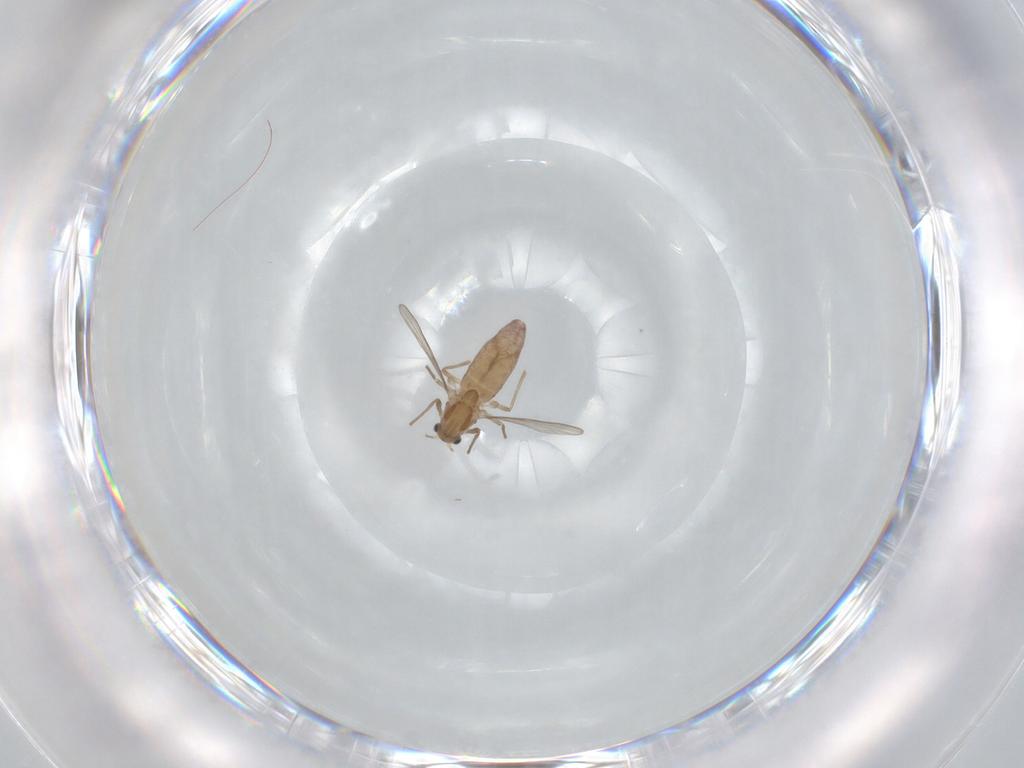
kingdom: Animalia
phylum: Arthropoda
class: Insecta
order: Diptera
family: Chironomidae
